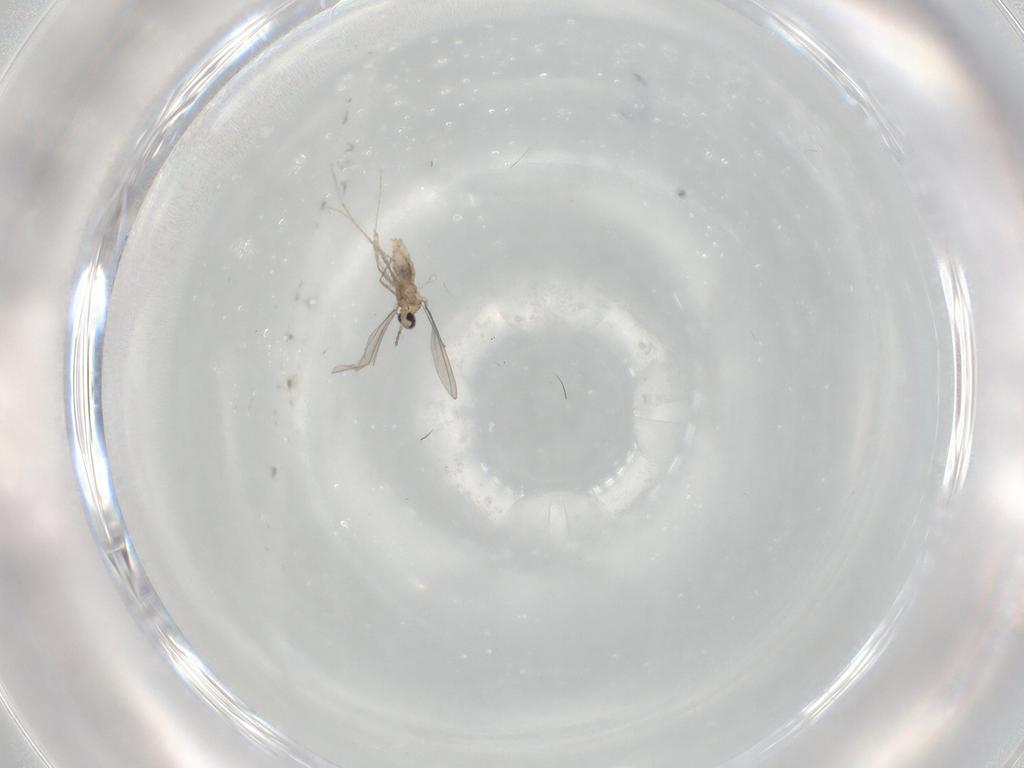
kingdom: Animalia
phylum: Arthropoda
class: Insecta
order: Diptera
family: Cecidomyiidae
